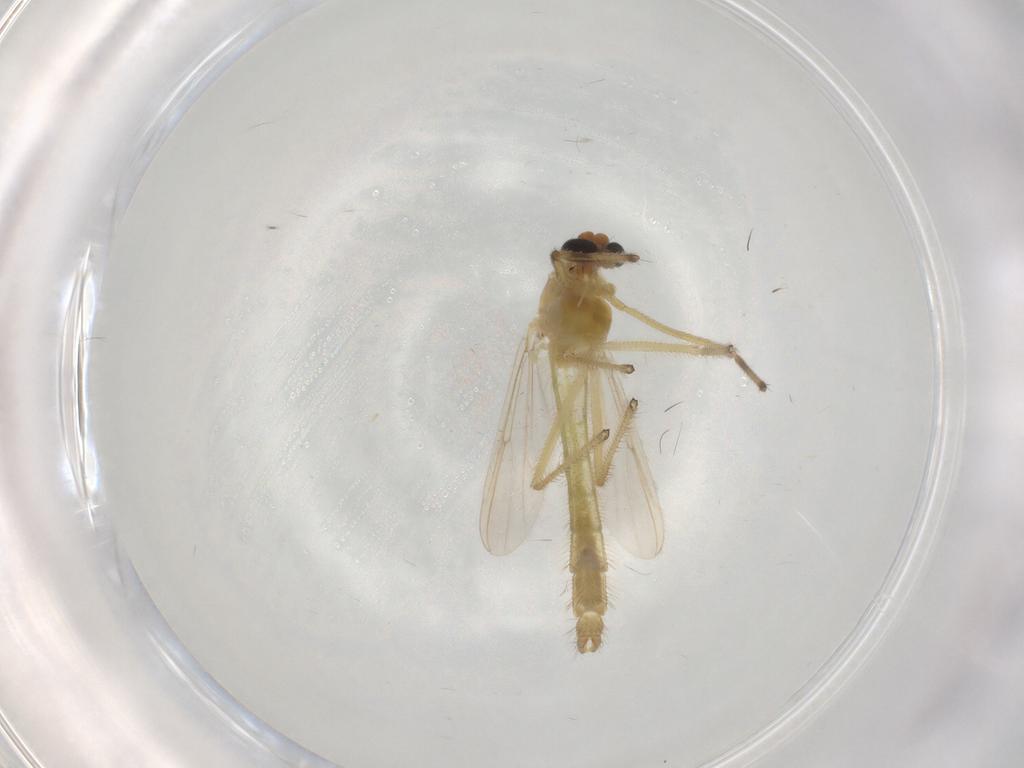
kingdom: Animalia
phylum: Arthropoda
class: Insecta
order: Diptera
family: Chironomidae
